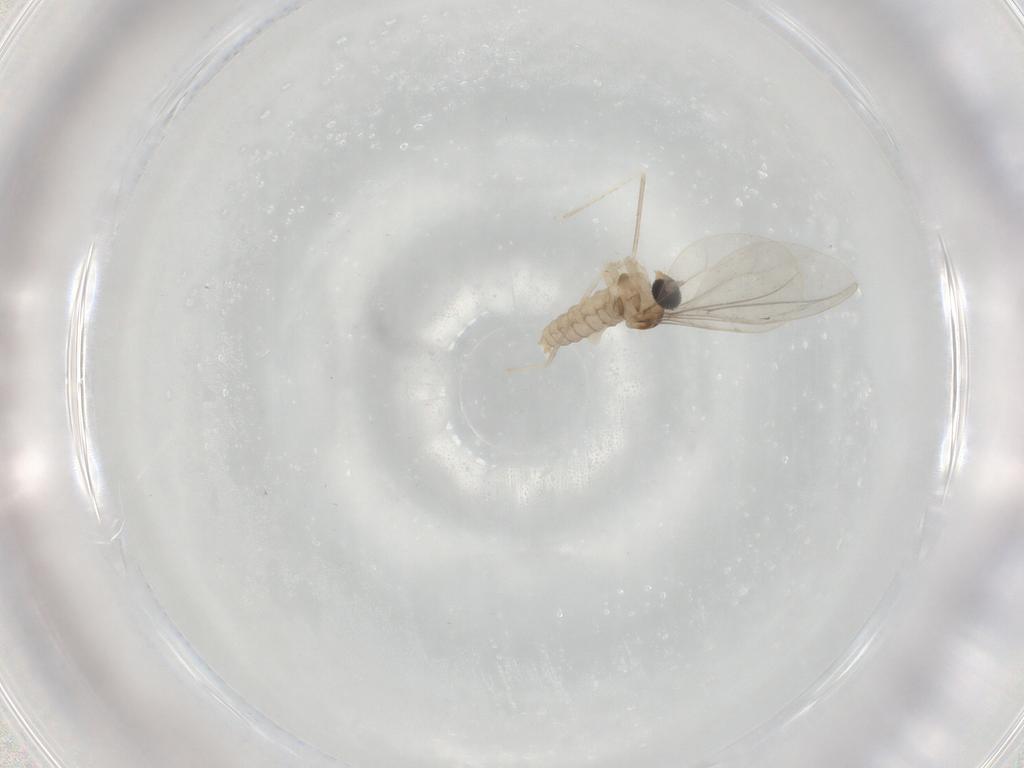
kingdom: Animalia
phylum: Arthropoda
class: Insecta
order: Diptera
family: Cecidomyiidae
